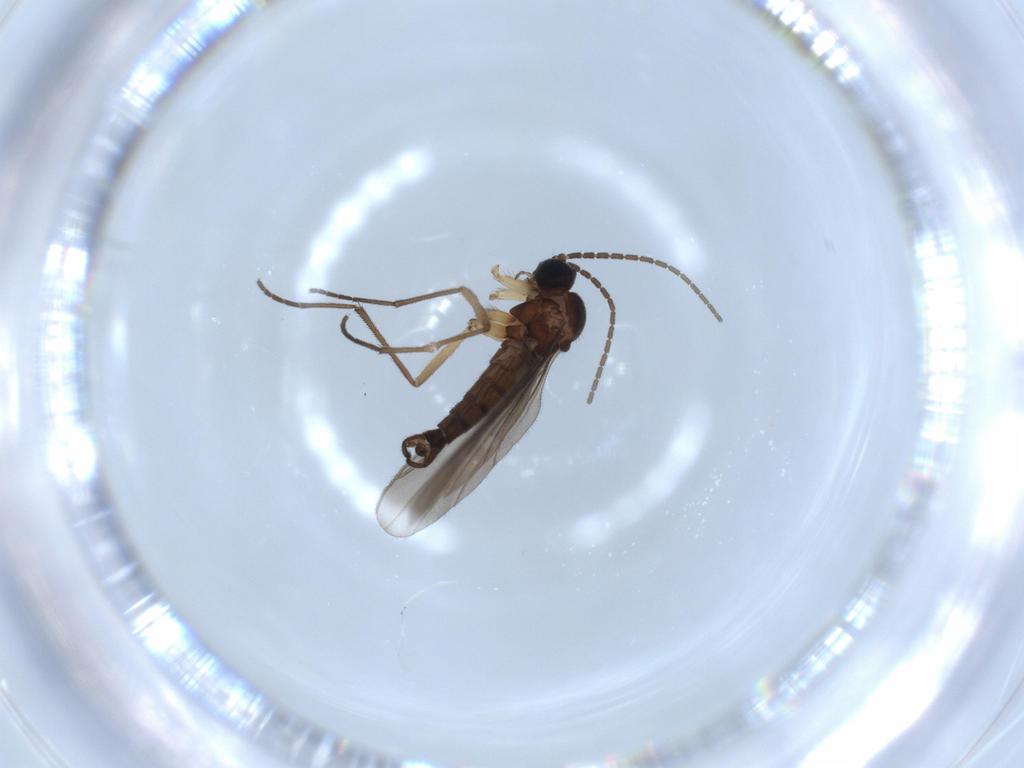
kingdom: Animalia
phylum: Arthropoda
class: Insecta
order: Diptera
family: Sciaridae
